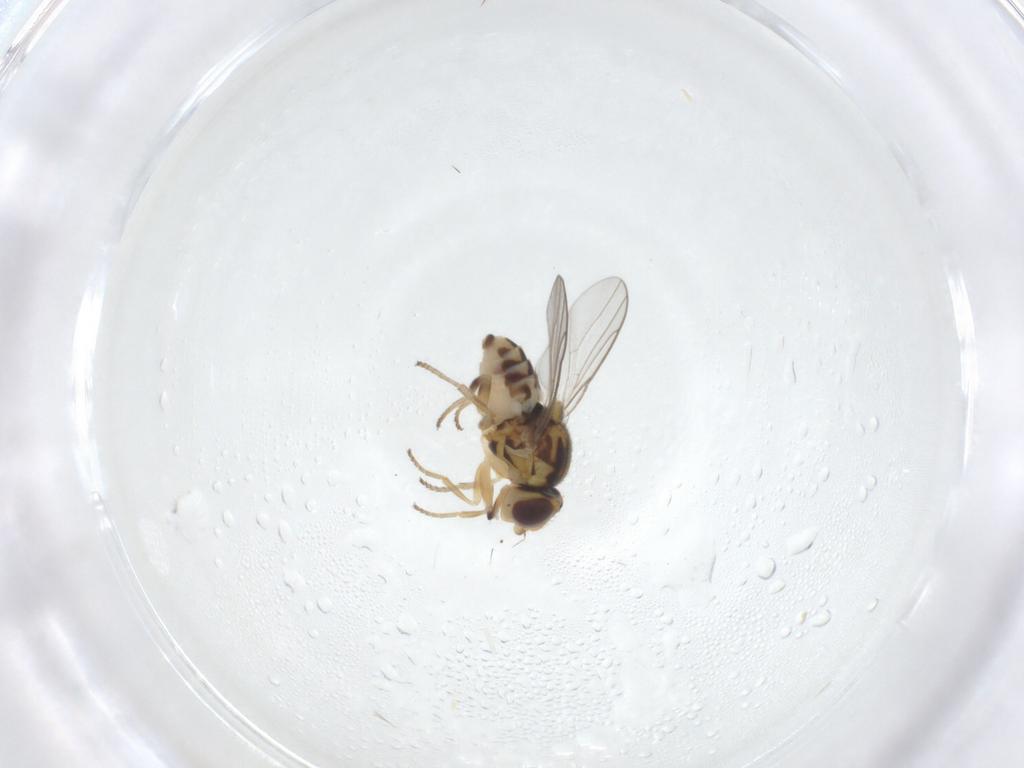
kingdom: Animalia
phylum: Arthropoda
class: Insecta
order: Diptera
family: Chloropidae
